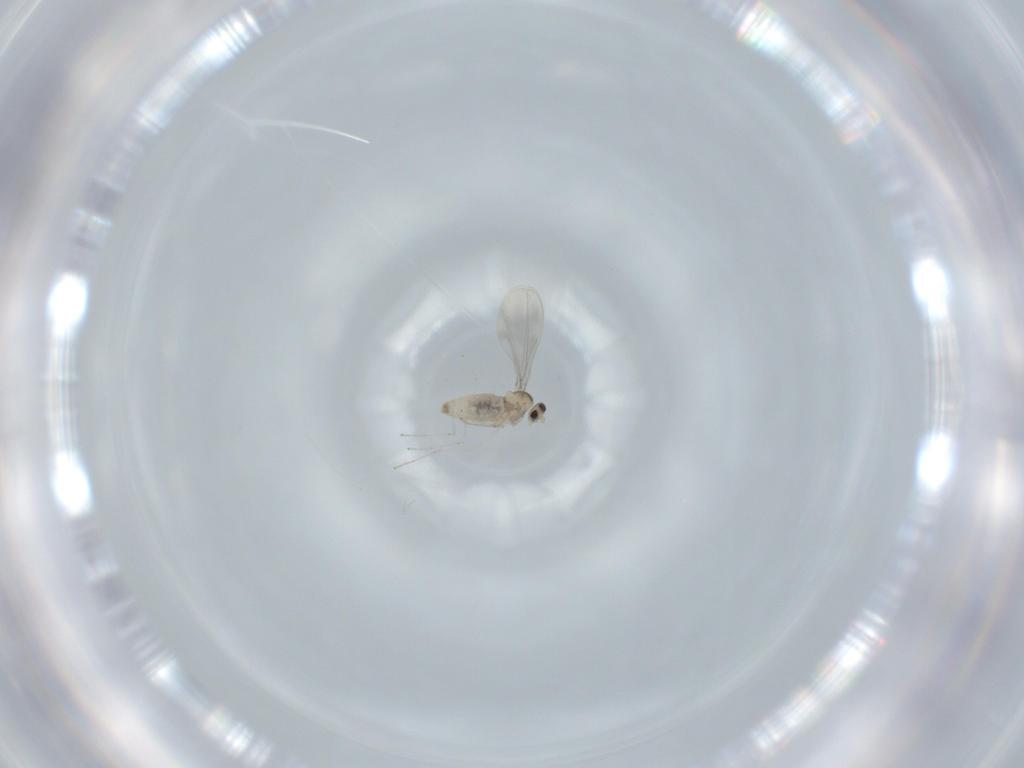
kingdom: Animalia
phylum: Arthropoda
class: Insecta
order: Diptera
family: Cecidomyiidae
